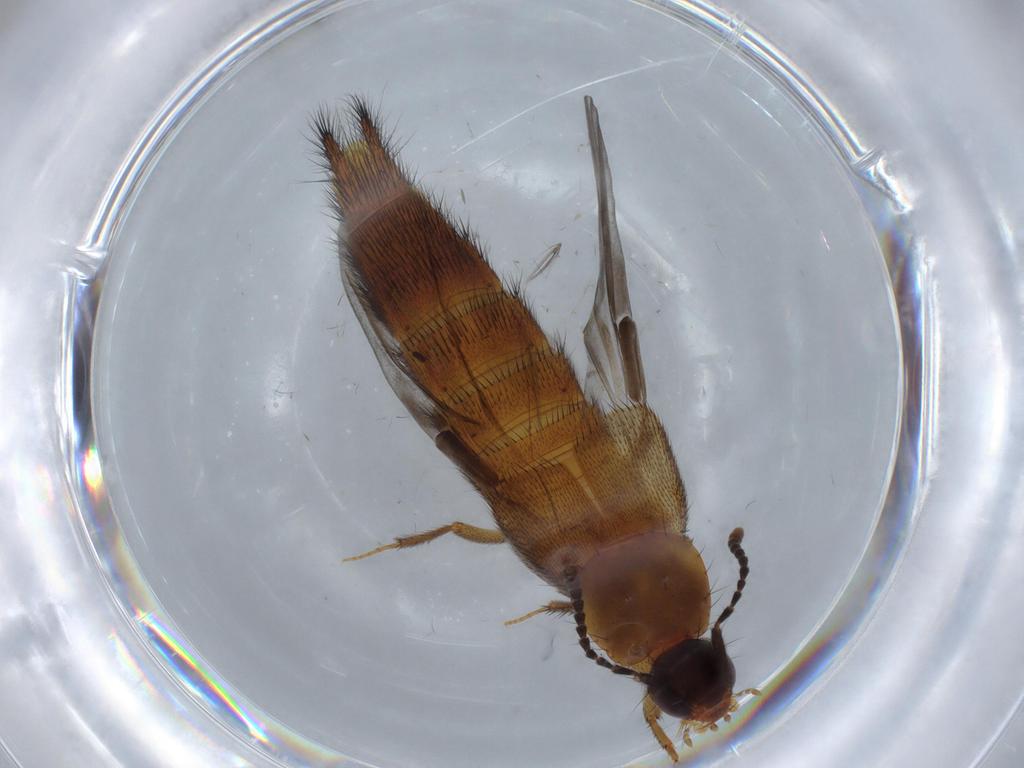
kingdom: Animalia
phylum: Arthropoda
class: Insecta
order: Coleoptera
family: Staphylinidae
